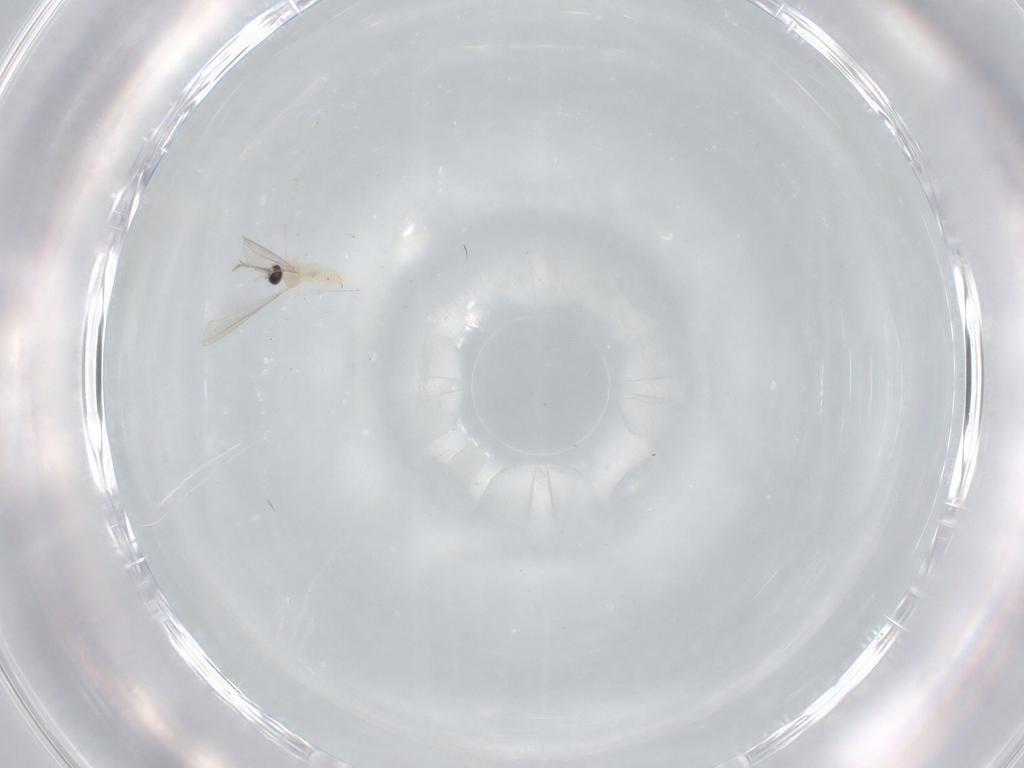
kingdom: Animalia
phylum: Arthropoda
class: Insecta
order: Diptera
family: Cecidomyiidae
